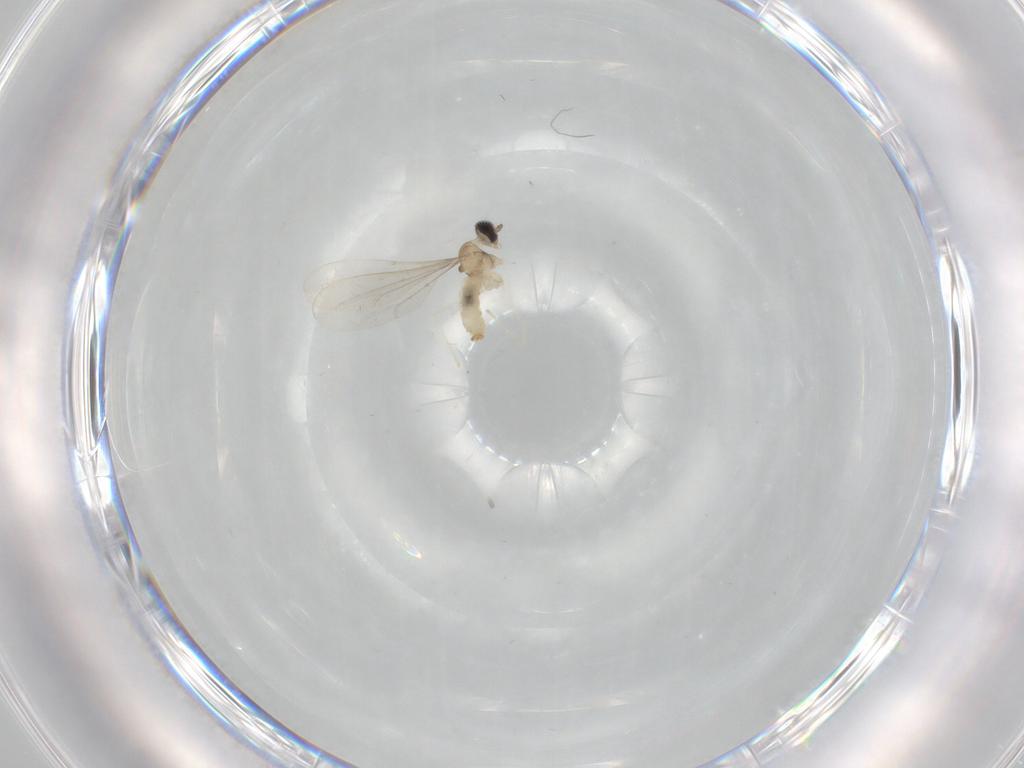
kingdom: Animalia
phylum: Arthropoda
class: Insecta
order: Diptera
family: Cecidomyiidae
